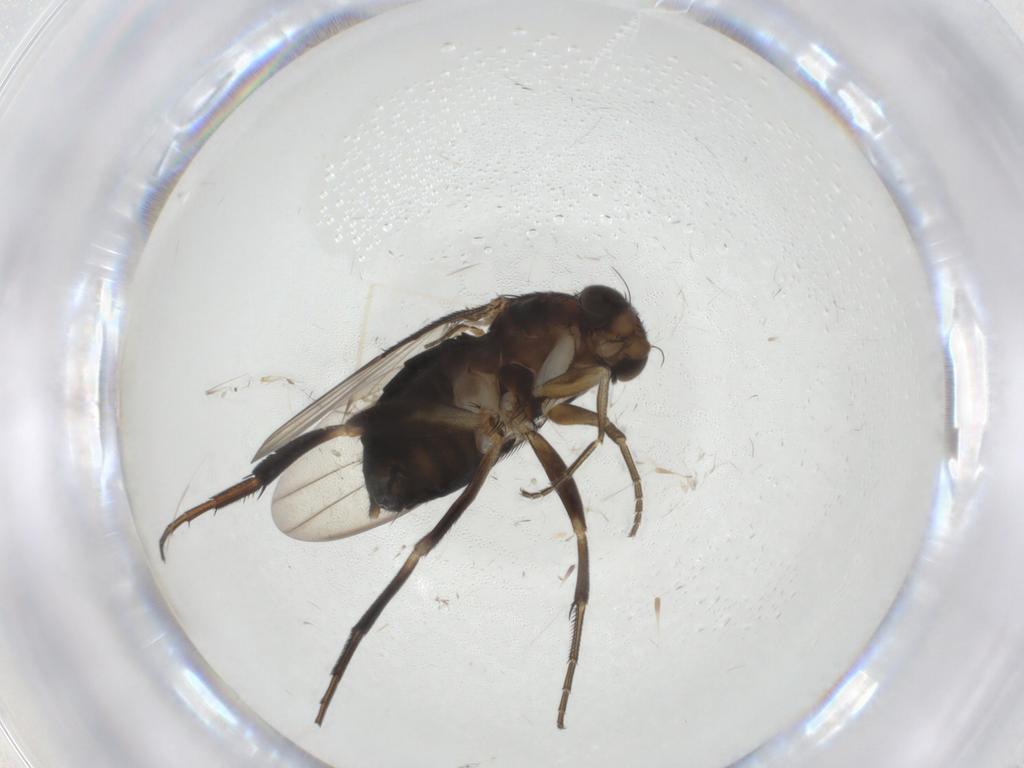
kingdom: Animalia
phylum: Arthropoda
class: Insecta
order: Diptera
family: Phoridae
